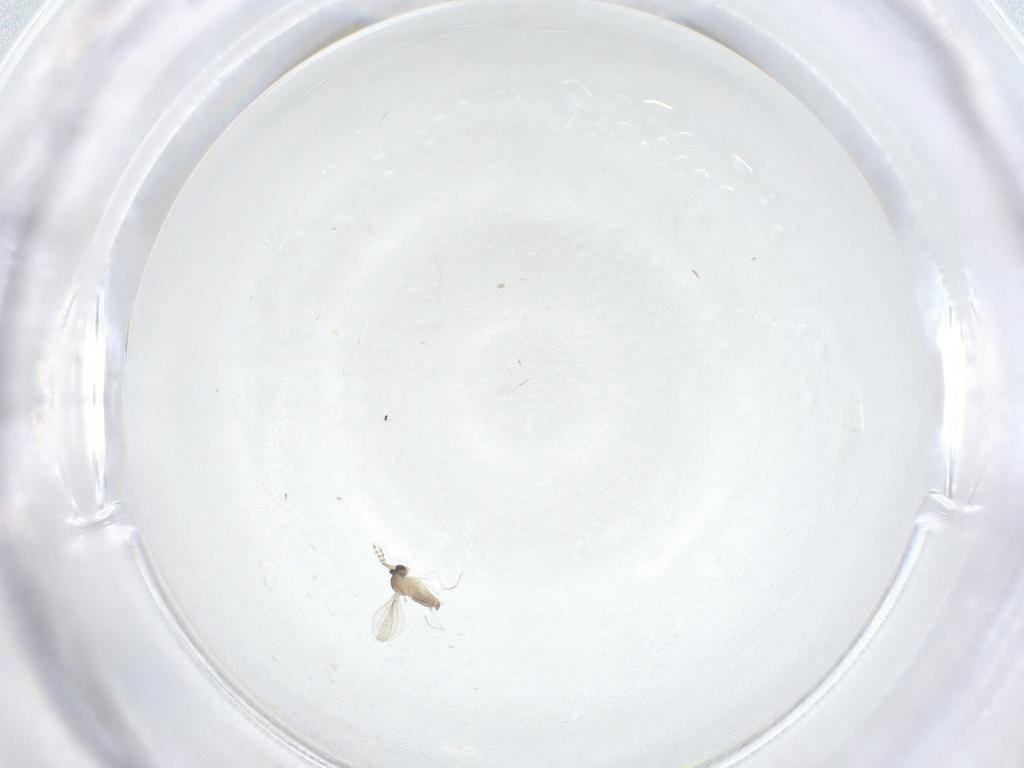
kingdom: Animalia
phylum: Arthropoda
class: Insecta
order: Diptera
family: Cecidomyiidae
